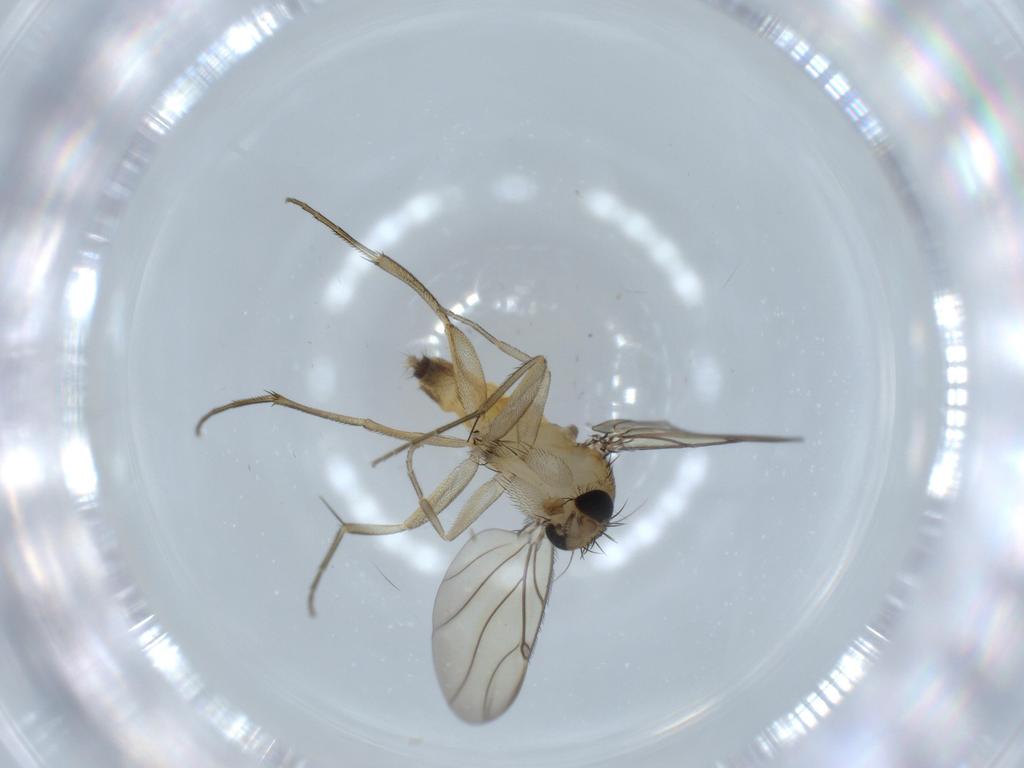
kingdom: Animalia
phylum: Arthropoda
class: Insecta
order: Diptera
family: Phoridae
